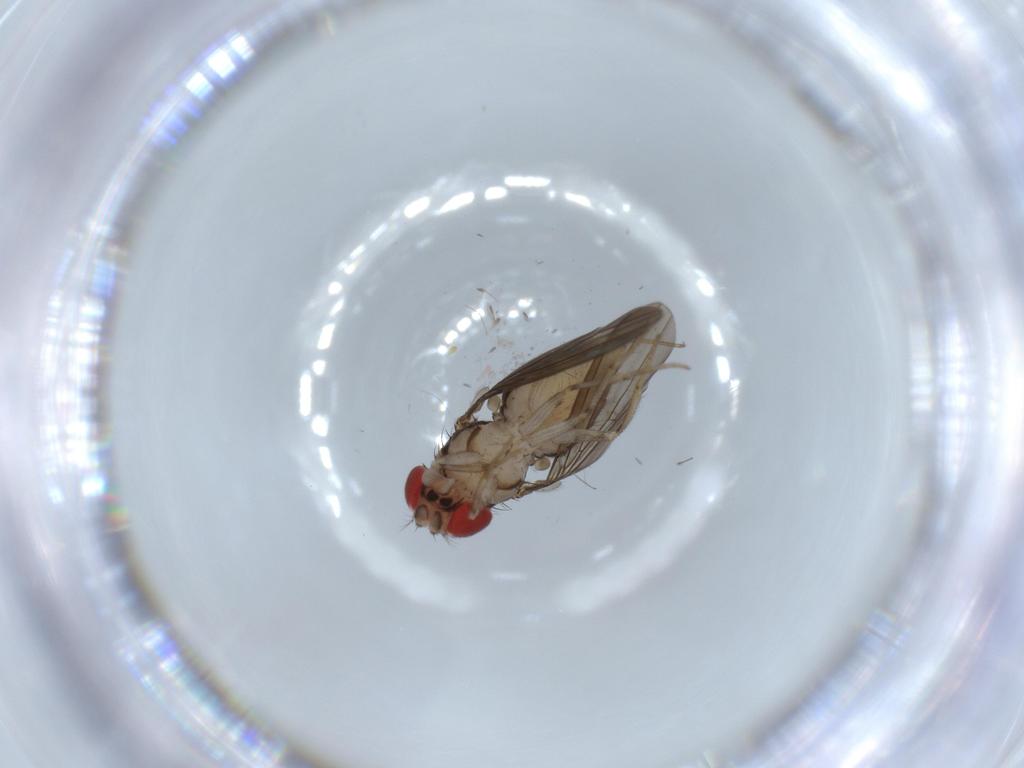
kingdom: Animalia
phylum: Arthropoda
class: Insecta
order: Diptera
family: Drosophilidae
